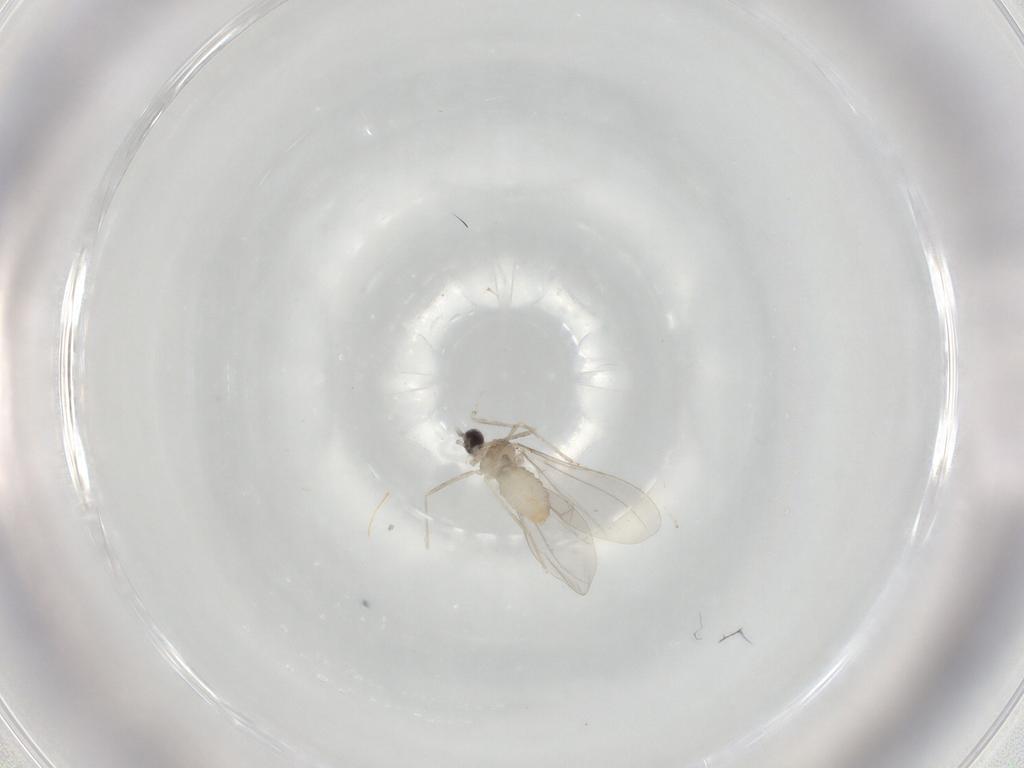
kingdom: Animalia
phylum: Arthropoda
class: Insecta
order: Diptera
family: Cecidomyiidae
